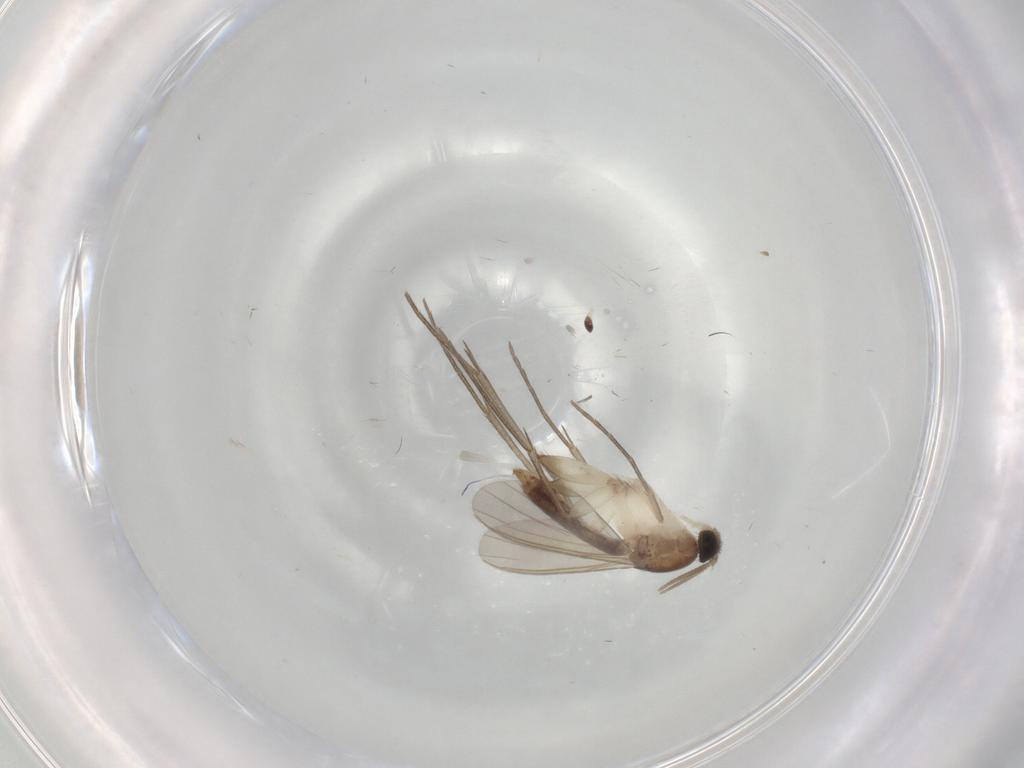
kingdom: Animalia
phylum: Arthropoda
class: Insecta
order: Diptera
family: Mycetophilidae
